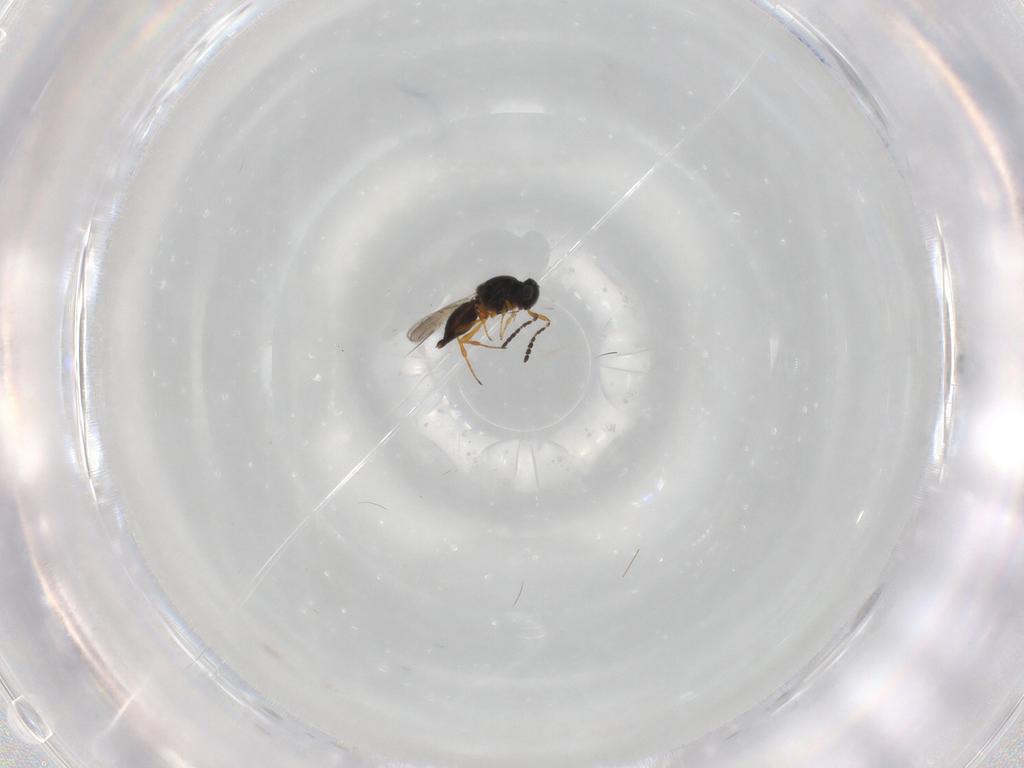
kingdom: Animalia
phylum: Arthropoda
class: Insecta
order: Hymenoptera
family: Platygastridae
